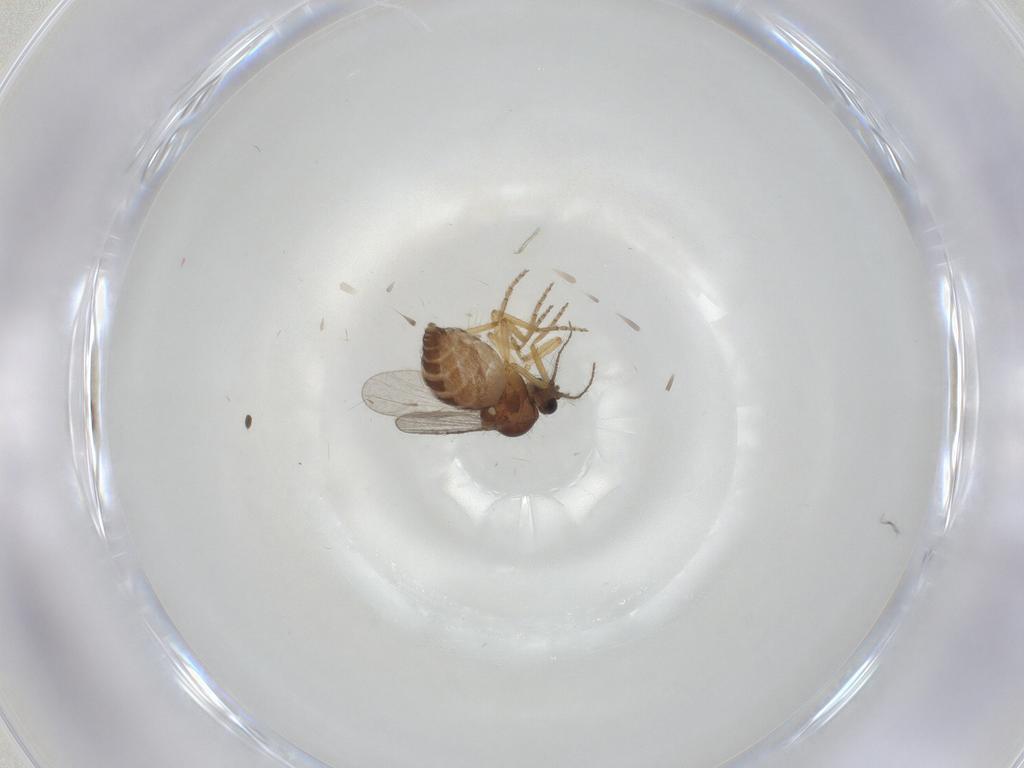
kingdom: Animalia
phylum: Arthropoda
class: Insecta
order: Diptera
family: Ceratopogonidae
